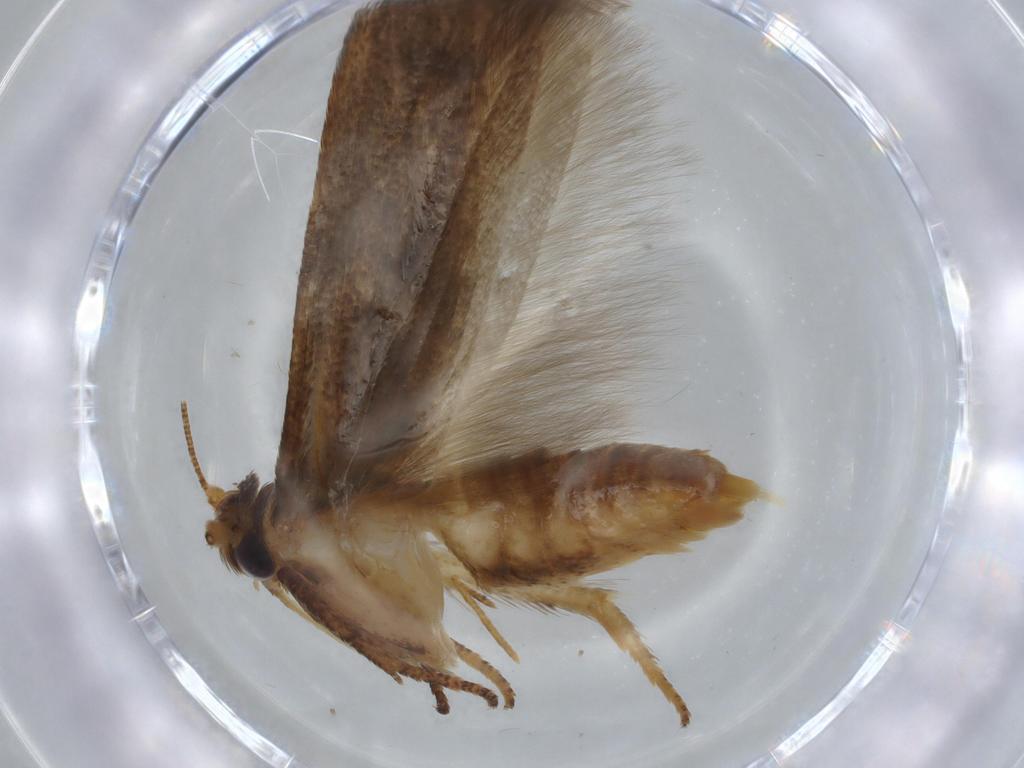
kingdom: Animalia
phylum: Arthropoda
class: Insecta
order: Lepidoptera
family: Coleophoridae
